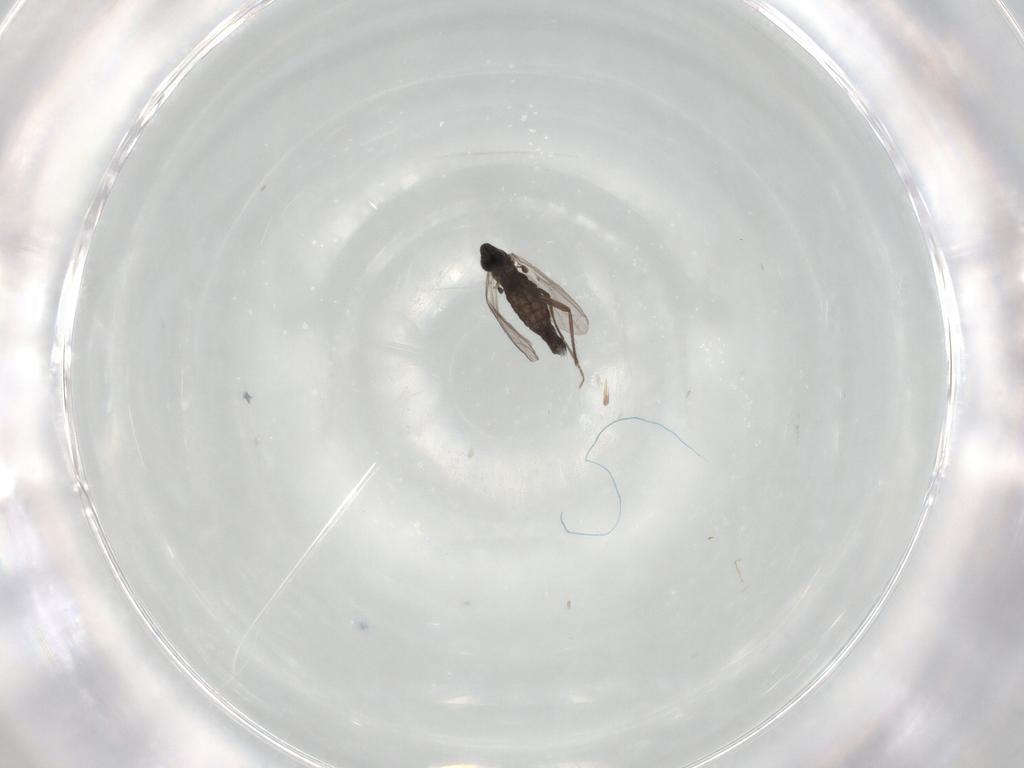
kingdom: Animalia
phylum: Arthropoda
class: Insecta
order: Diptera
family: Chironomidae
